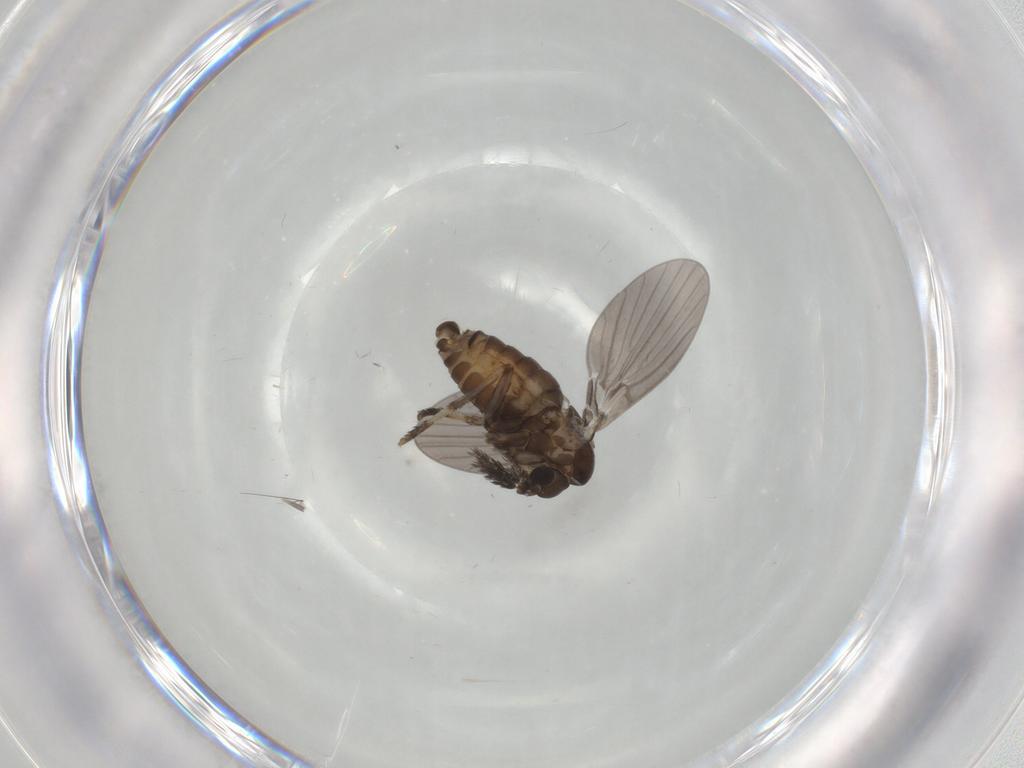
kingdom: Animalia
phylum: Arthropoda
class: Insecta
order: Diptera
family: Psychodidae
